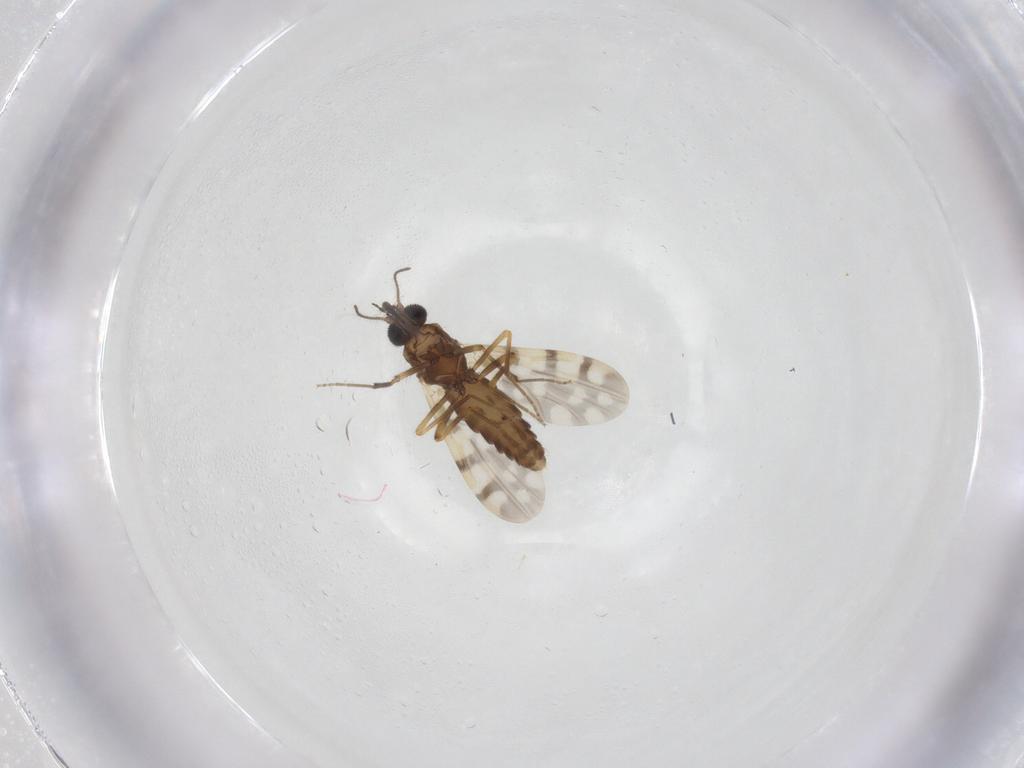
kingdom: Animalia
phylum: Arthropoda
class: Insecta
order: Diptera
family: Ceratopogonidae
